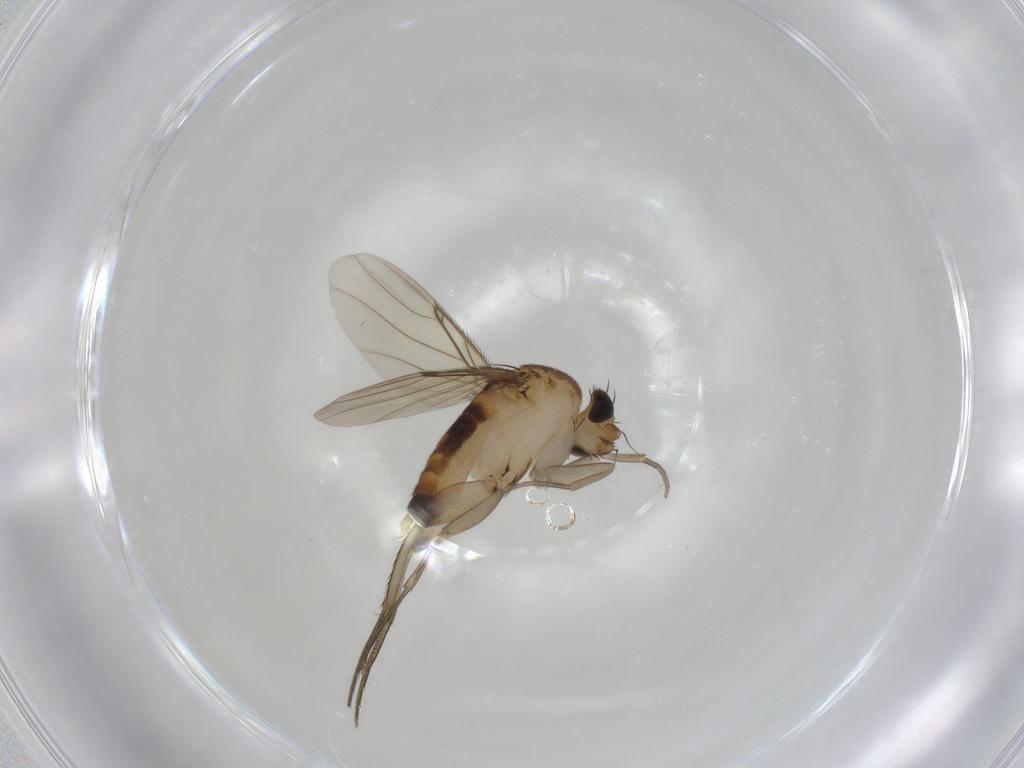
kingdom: Animalia
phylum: Arthropoda
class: Insecta
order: Diptera
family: Phoridae
